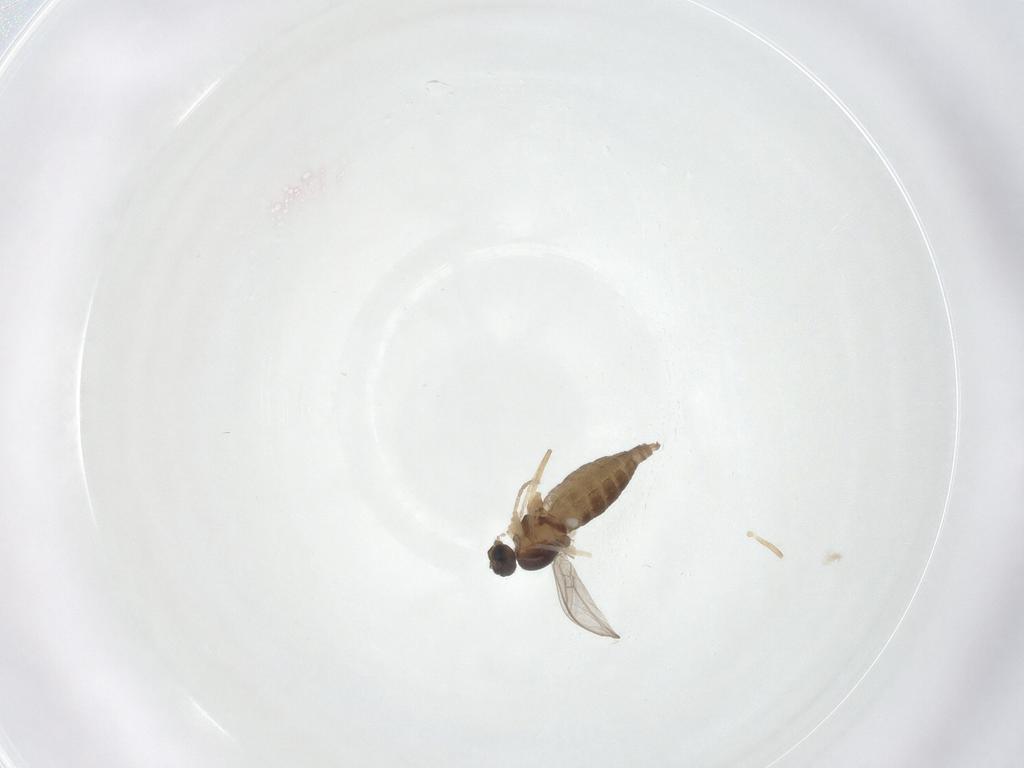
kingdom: Animalia
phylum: Arthropoda
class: Insecta
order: Diptera
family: Cecidomyiidae
